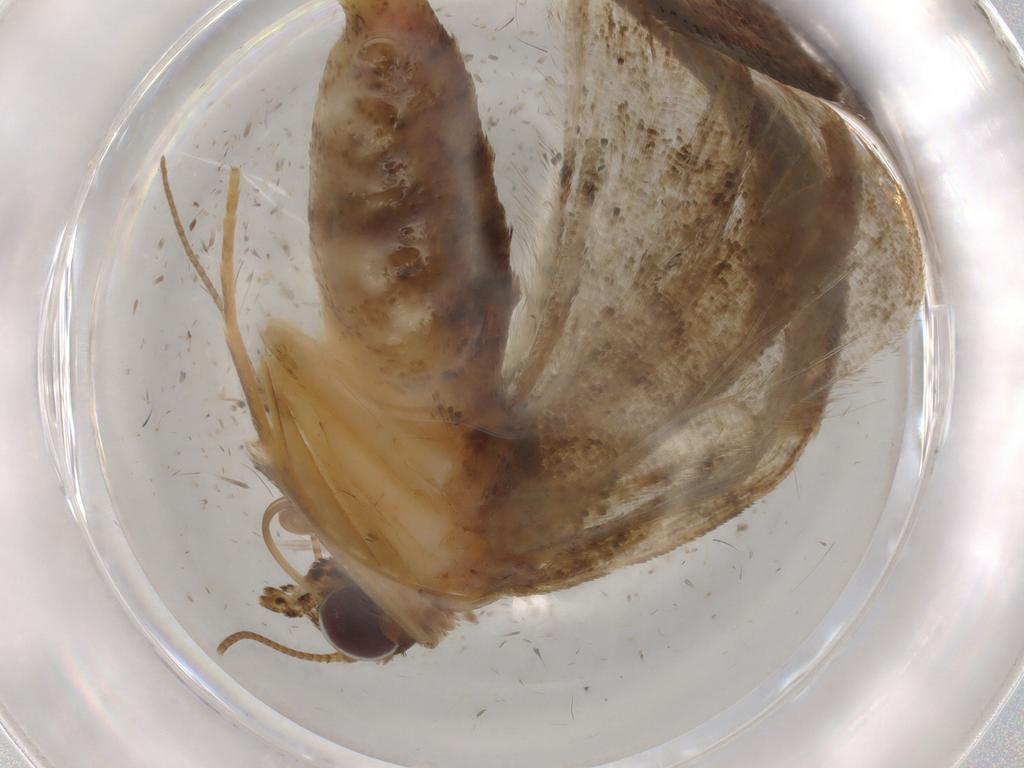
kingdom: Animalia
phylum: Arthropoda
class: Insecta
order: Lepidoptera
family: Geometridae
